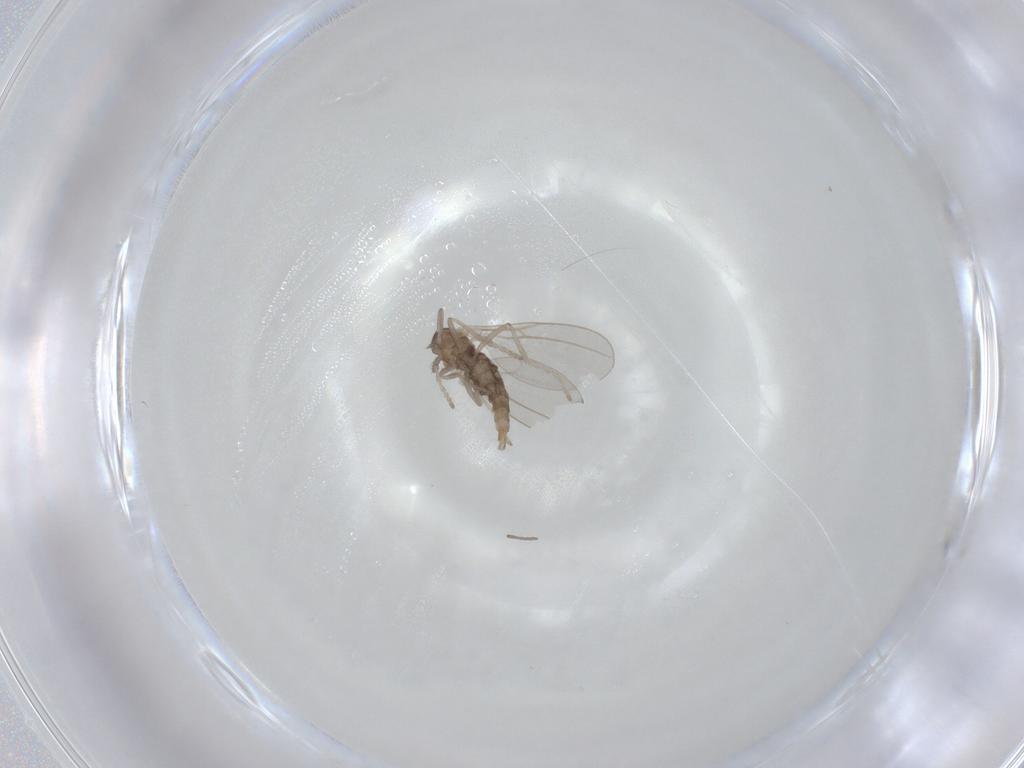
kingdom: Animalia
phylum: Arthropoda
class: Insecta
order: Diptera
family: Cecidomyiidae
